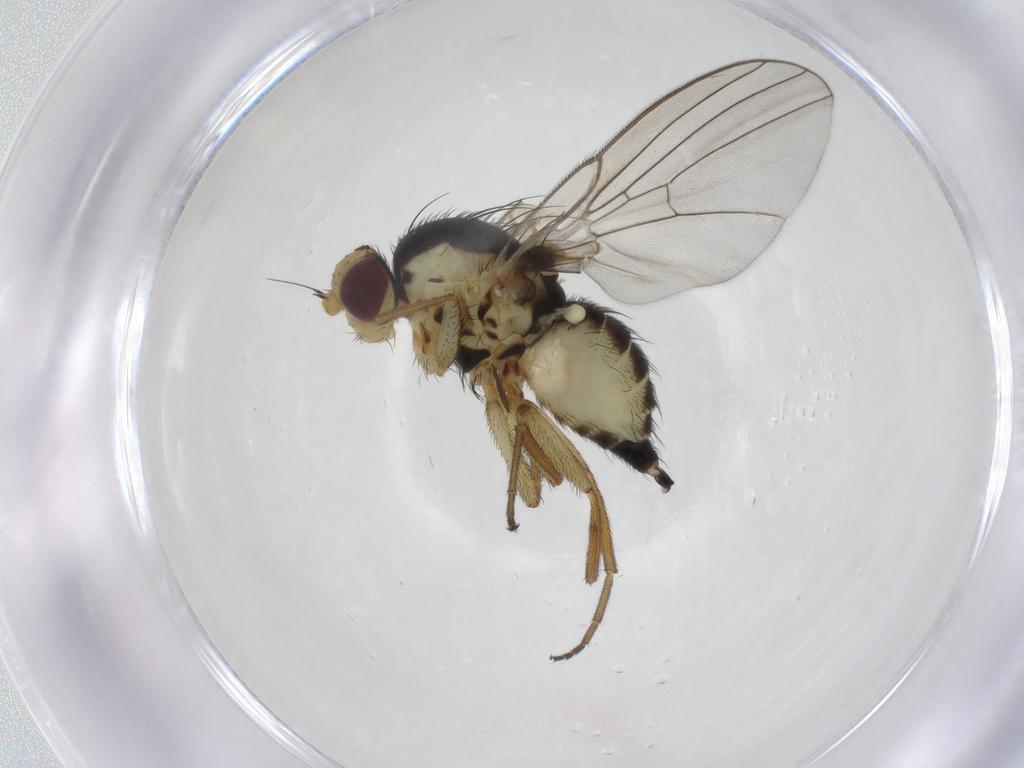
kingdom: Animalia
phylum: Arthropoda
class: Insecta
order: Diptera
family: Agromyzidae
